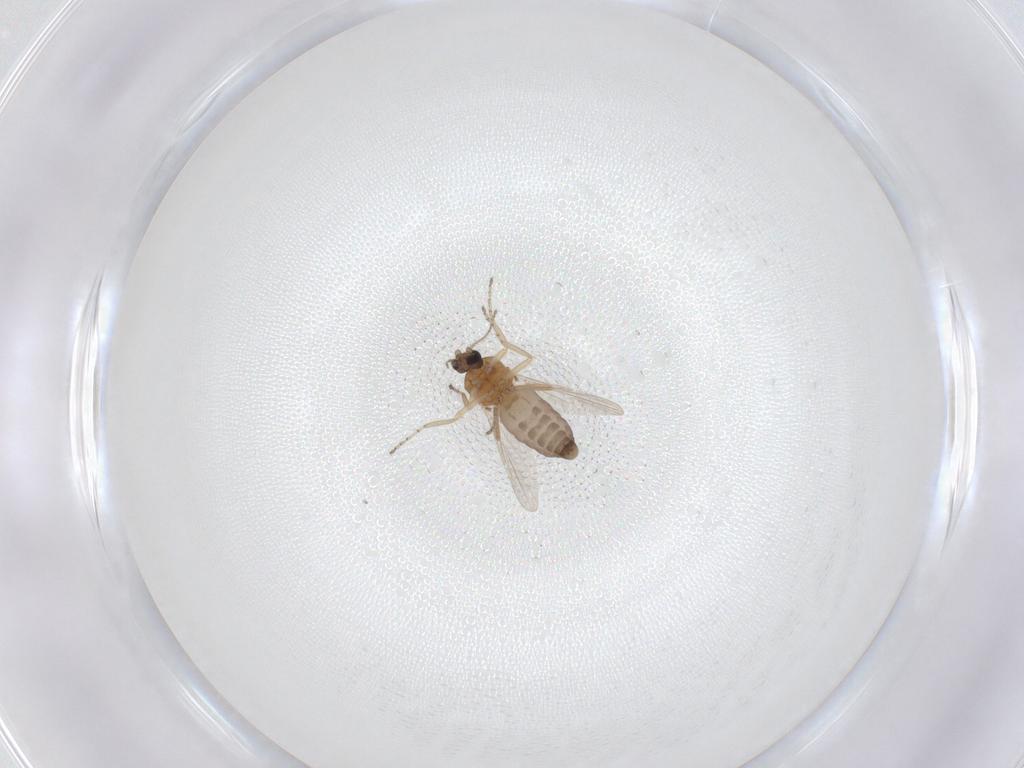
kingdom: Animalia
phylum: Arthropoda
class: Insecta
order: Diptera
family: Ceratopogonidae
